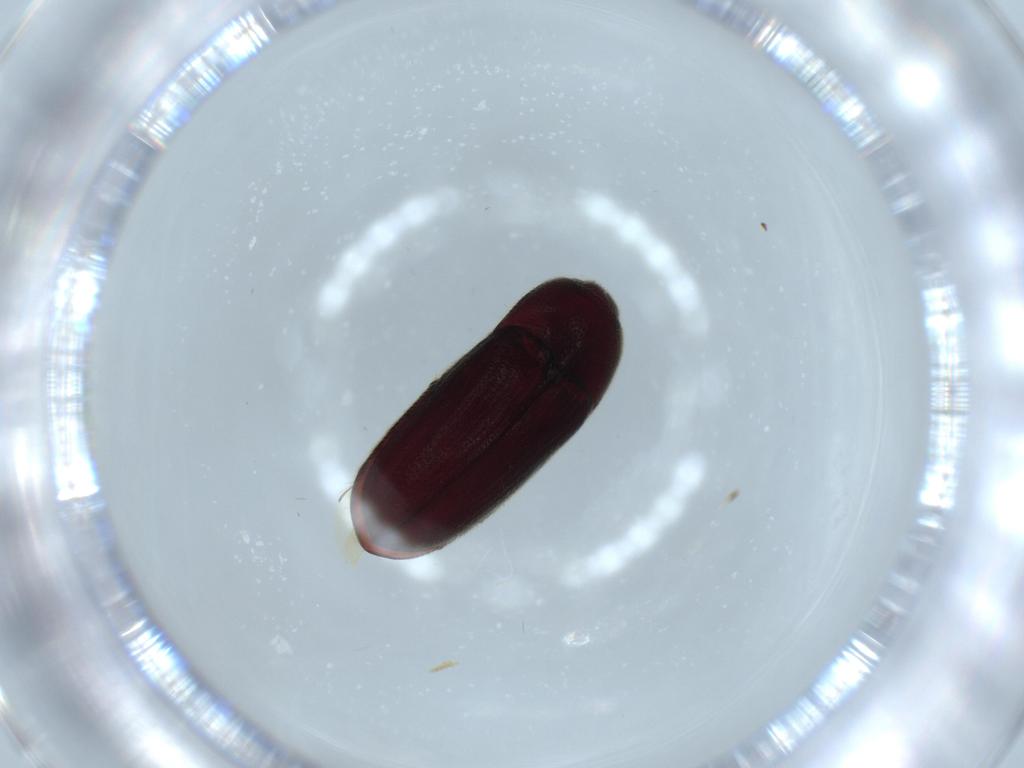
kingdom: Animalia
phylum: Arthropoda
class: Insecta
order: Coleoptera
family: Throscidae
